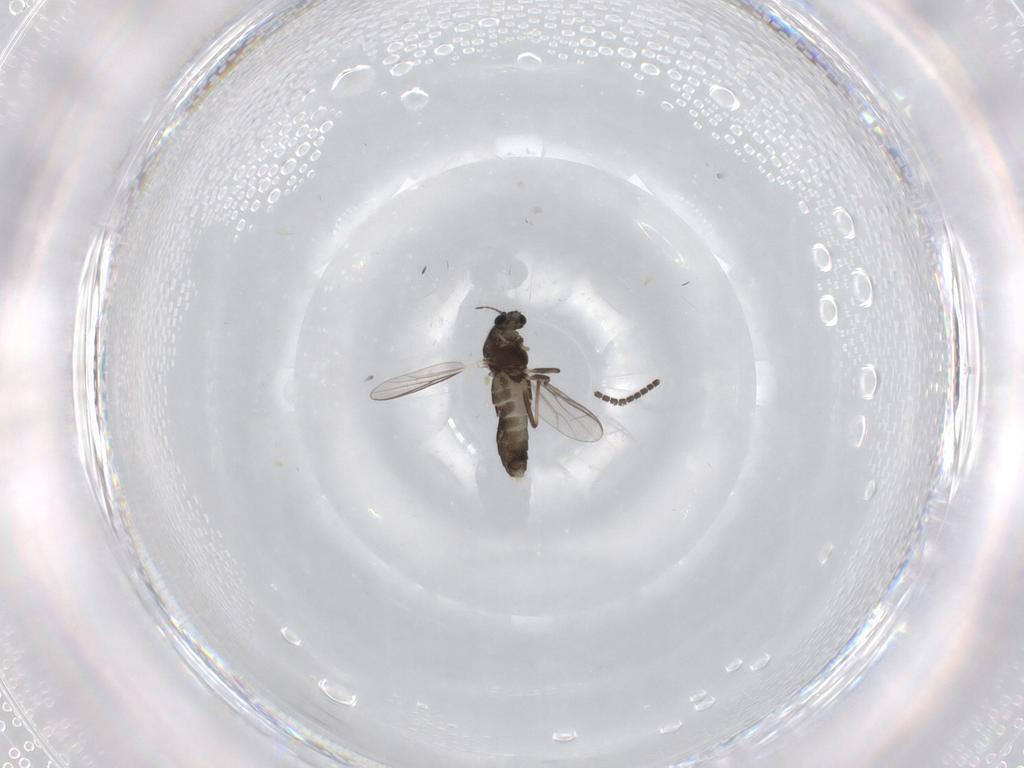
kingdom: Animalia
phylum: Arthropoda
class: Insecta
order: Diptera
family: Chironomidae
